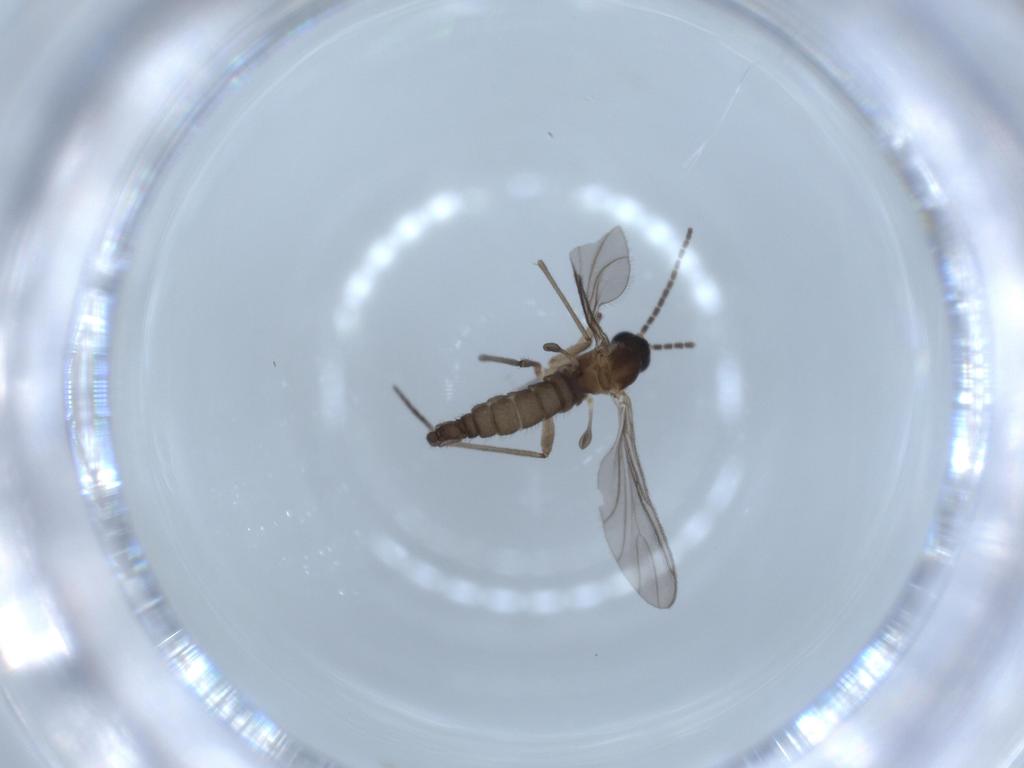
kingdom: Animalia
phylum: Arthropoda
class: Insecta
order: Diptera
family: Sciaridae
